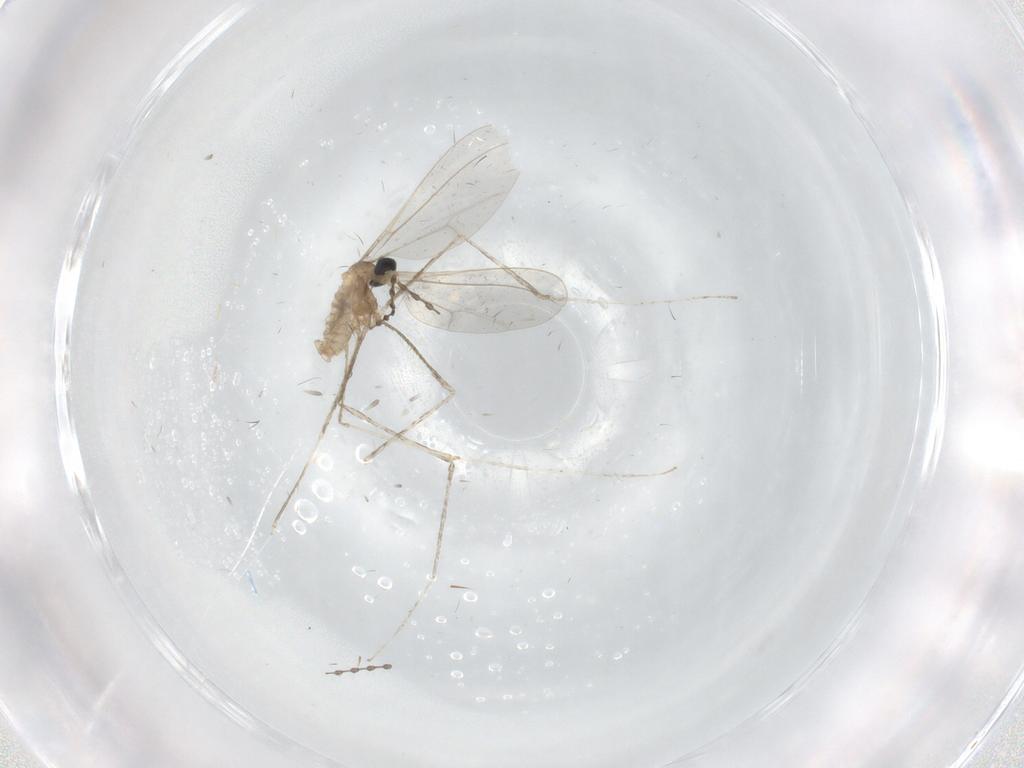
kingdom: Animalia
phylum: Arthropoda
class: Insecta
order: Diptera
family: Cecidomyiidae
